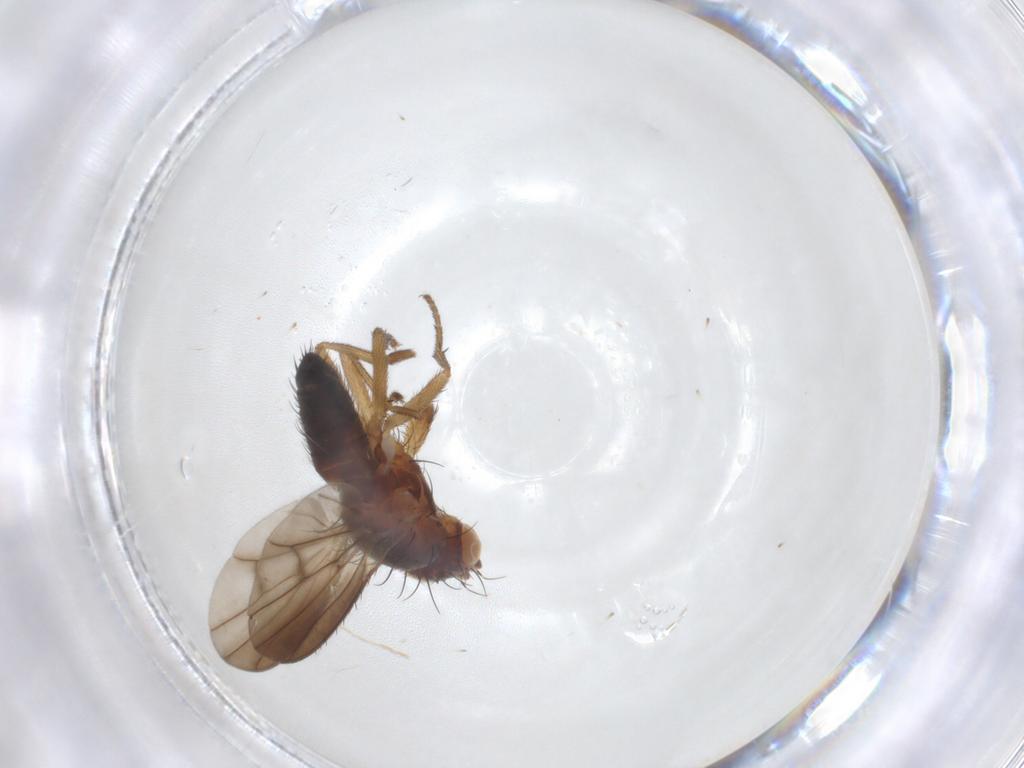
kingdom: Animalia
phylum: Arthropoda
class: Insecta
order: Diptera
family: Heleomyzidae
